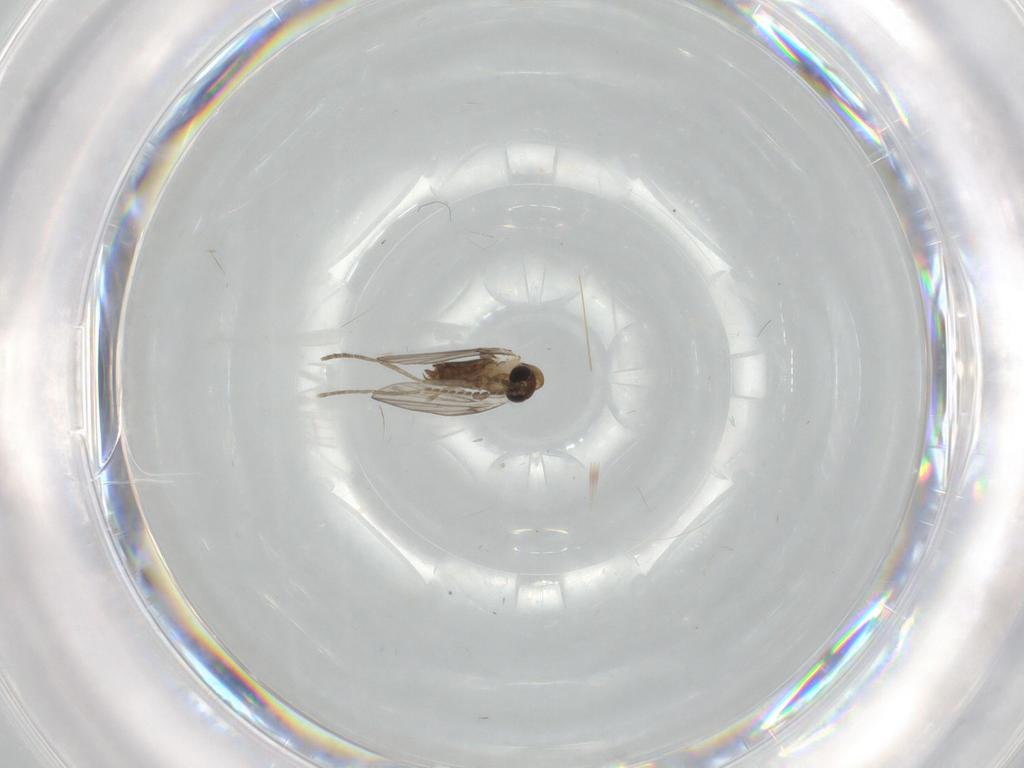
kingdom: Animalia
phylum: Arthropoda
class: Insecta
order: Diptera
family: Psychodidae
